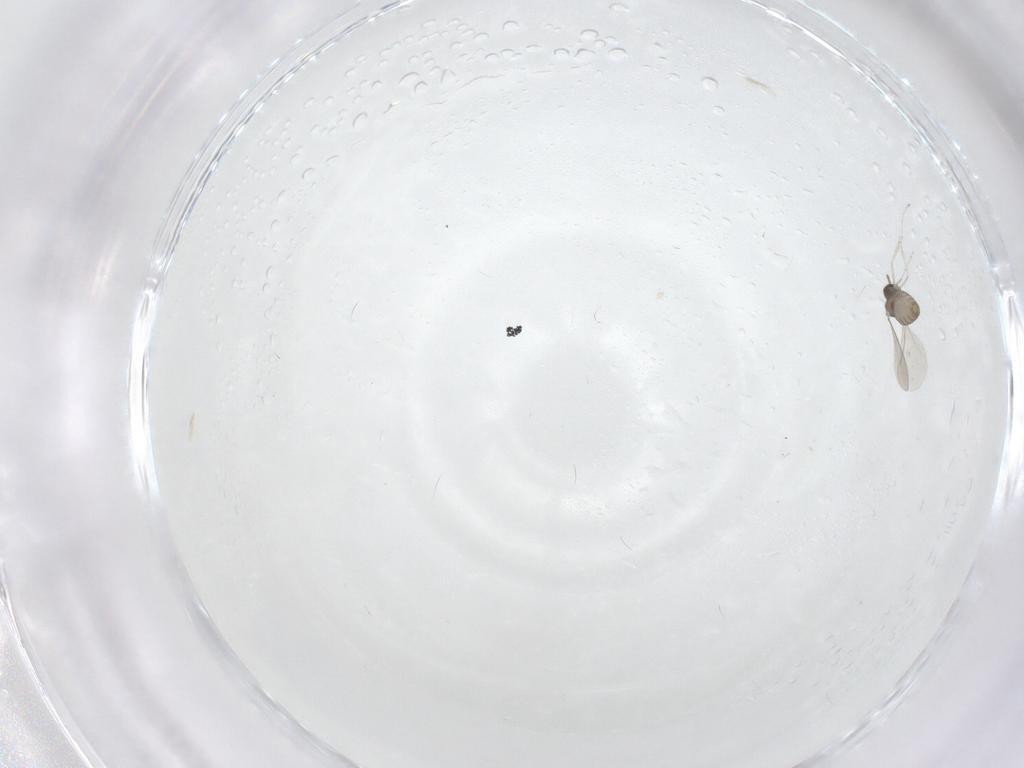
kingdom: Animalia
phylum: Arthropoda
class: Insecta
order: Diptera
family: Cecidomyiidae
